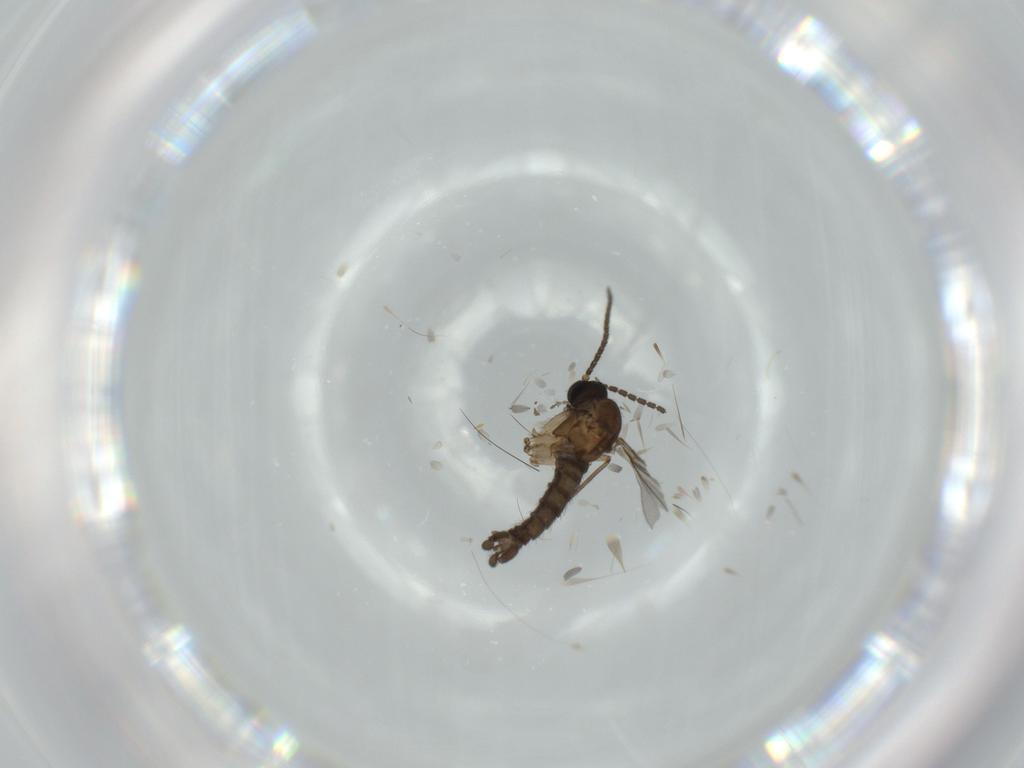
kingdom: Animalia
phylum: Arthropoda
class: Insecta
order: Diptera
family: Sciaridae
